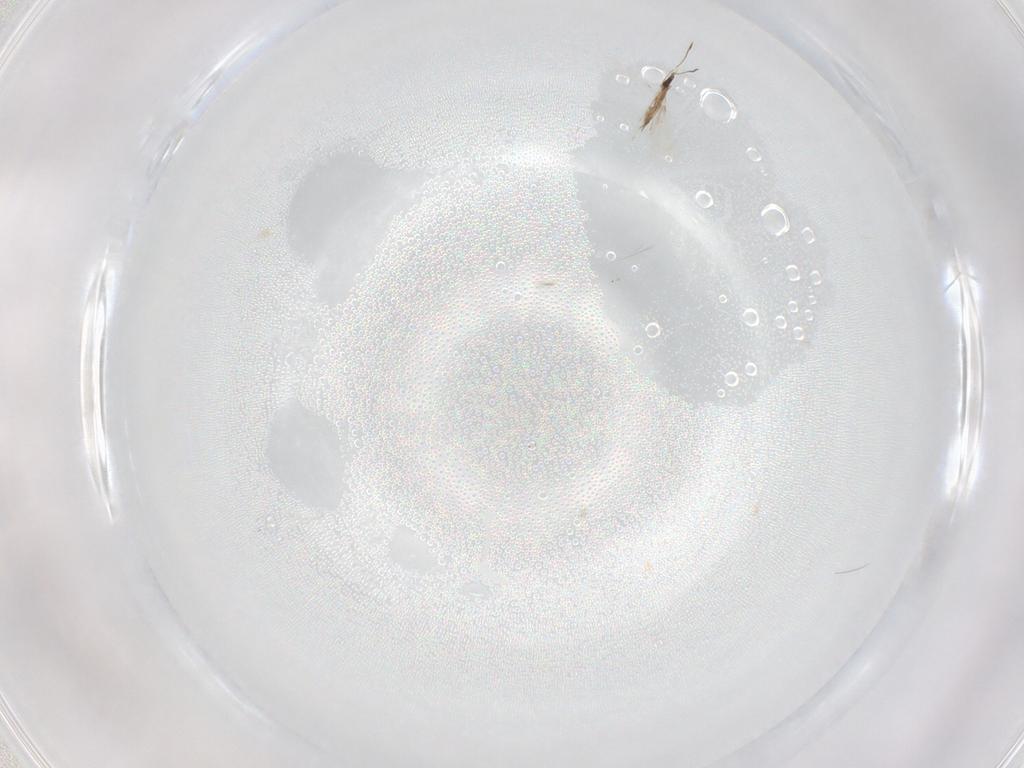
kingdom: Animalia
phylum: Arthropoda
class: Insecta
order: Hymenoptera
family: Mymaridae
